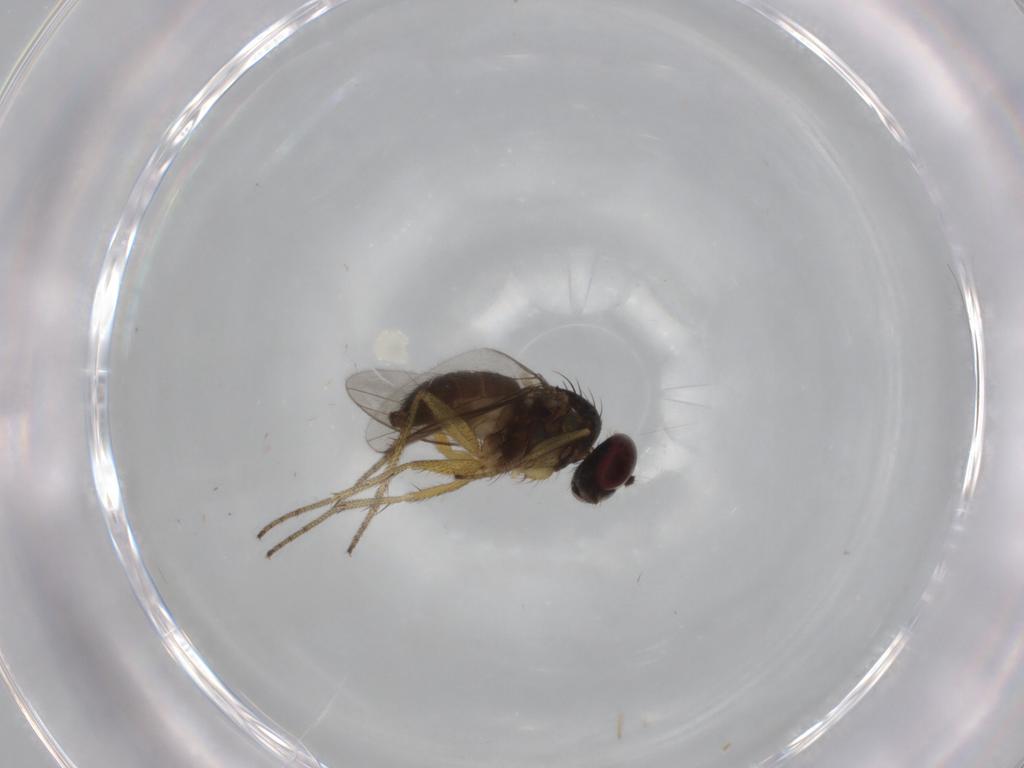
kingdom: Animalia
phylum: Arthropoda
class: Insecta
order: Diptera
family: Dolichopodidae
